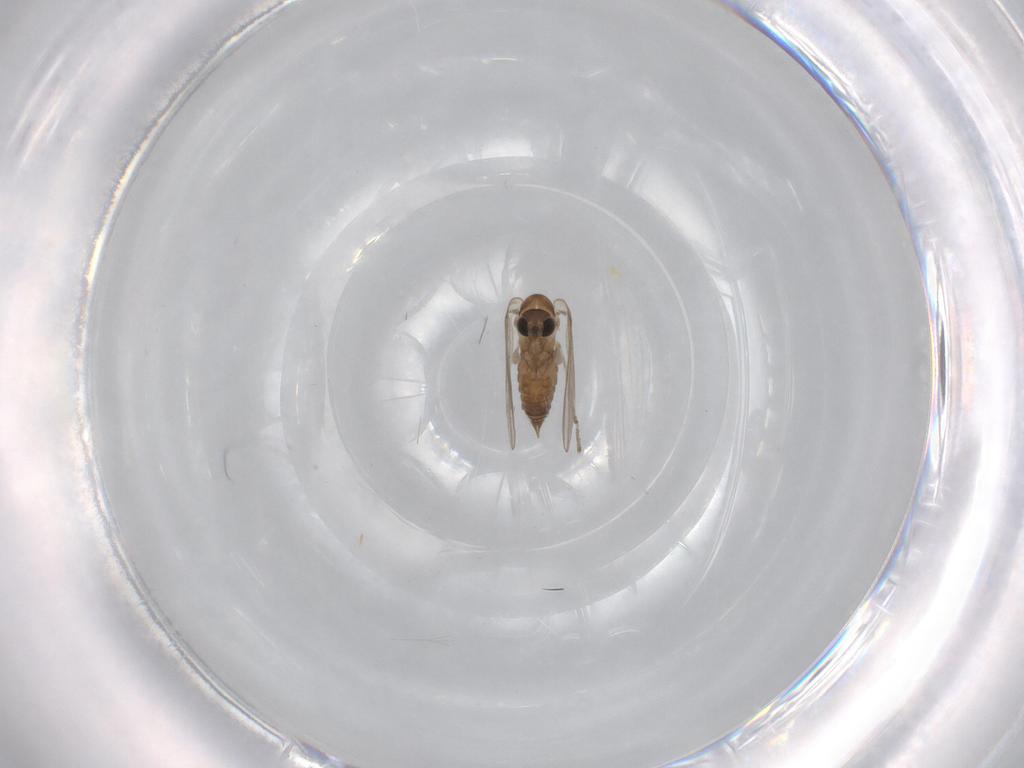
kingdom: Animalia
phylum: Arthropoda
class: Insecta
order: Diptera
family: Psychodidae
